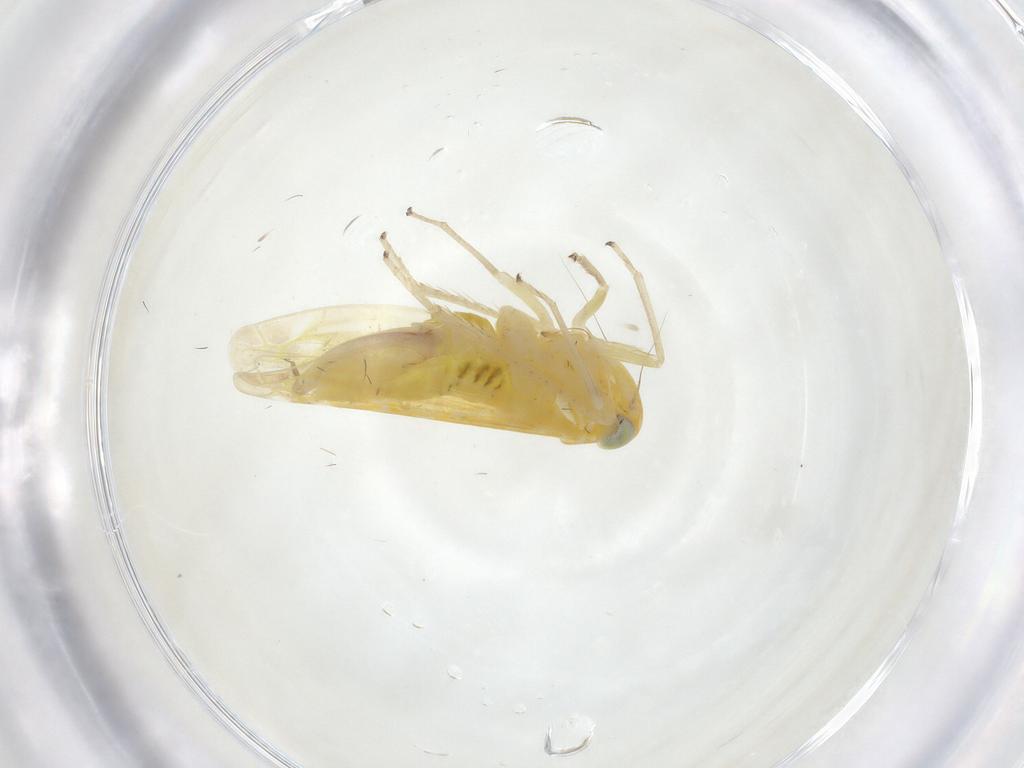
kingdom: Animalia
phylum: Arthropoda
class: Insecta
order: Hemiptera
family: Aphididae
